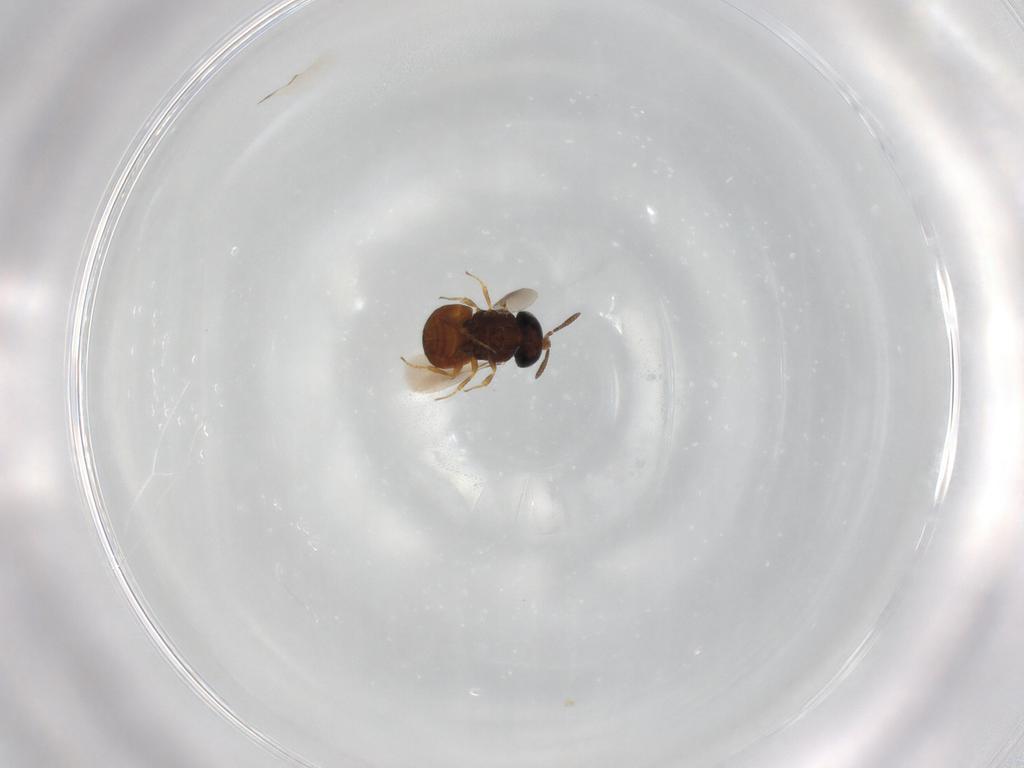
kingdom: Animalia
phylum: Arthropoda
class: Insecta
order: Hymenoptera
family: Scelionidae
